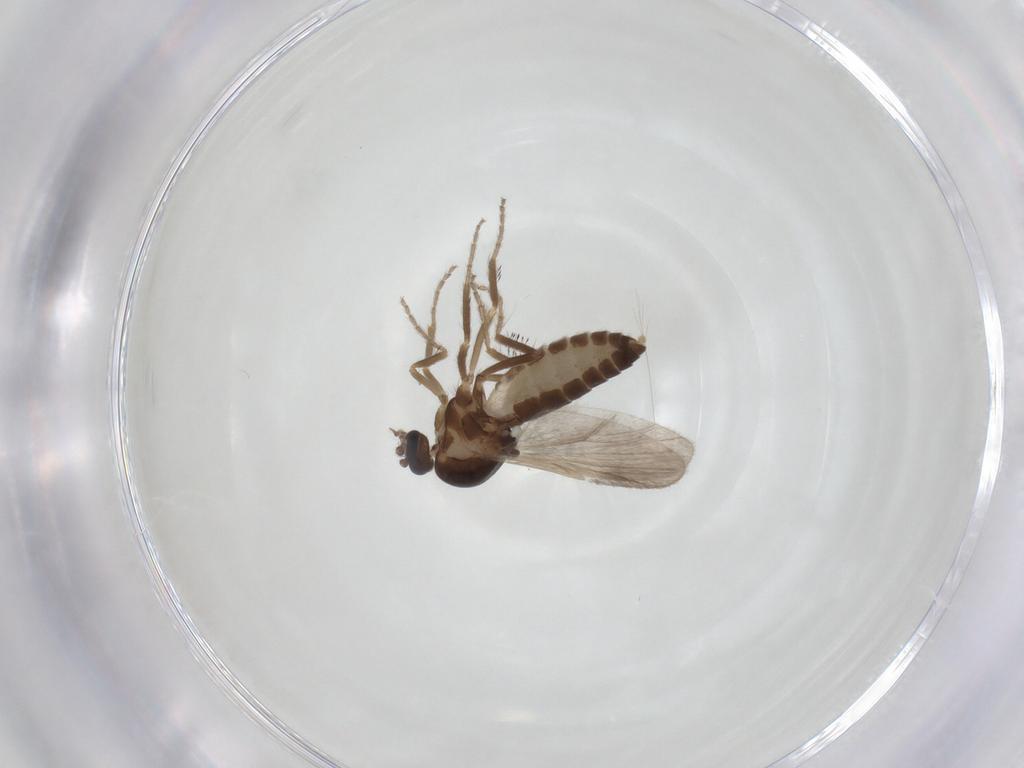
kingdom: Animalia
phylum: Arthropoda
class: Insecta
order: Diptera
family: Ceratopogonidae
